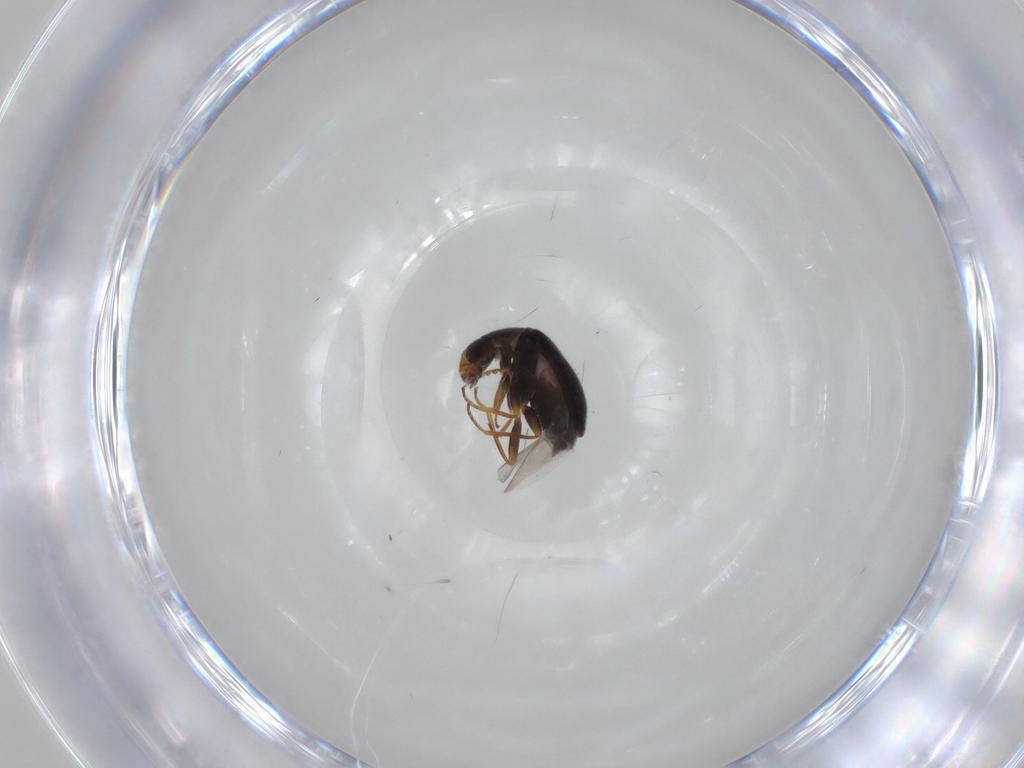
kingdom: Animalia
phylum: Arthropoda
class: Insecta
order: Coleoptera
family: Melyridae
